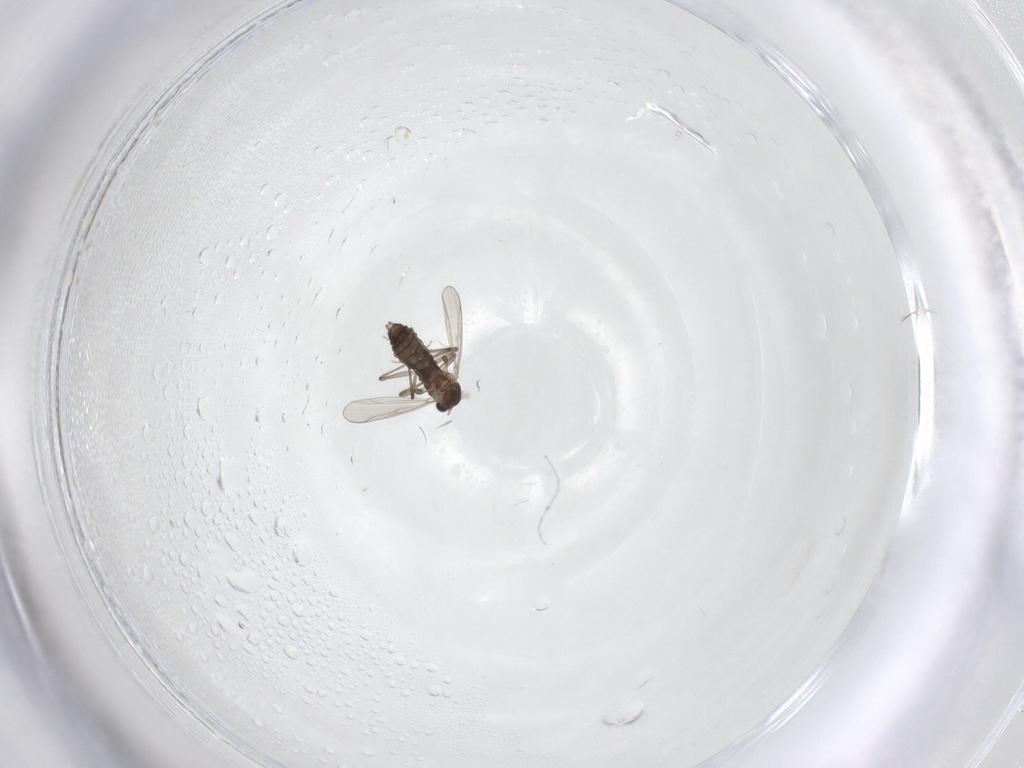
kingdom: Animalia
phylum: Arthropoda
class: Insecta
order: Diptera
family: Chironomidae
